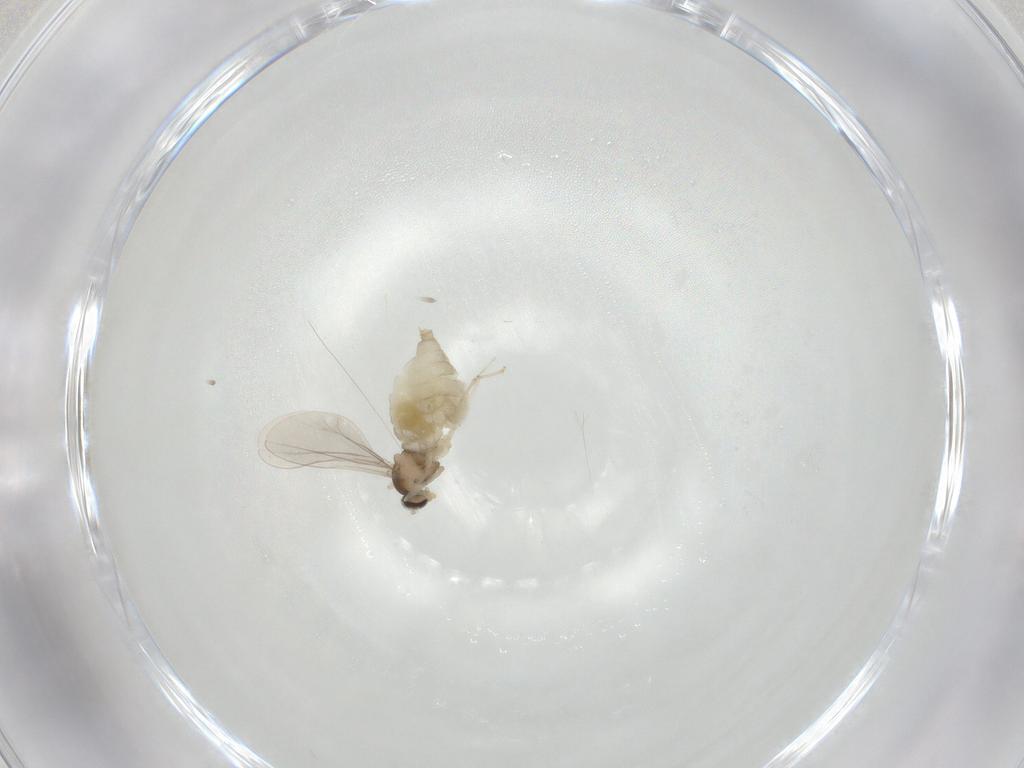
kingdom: Animalia
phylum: Arthropoda
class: Insecta
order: Diptera
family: Cecidomyiidae
